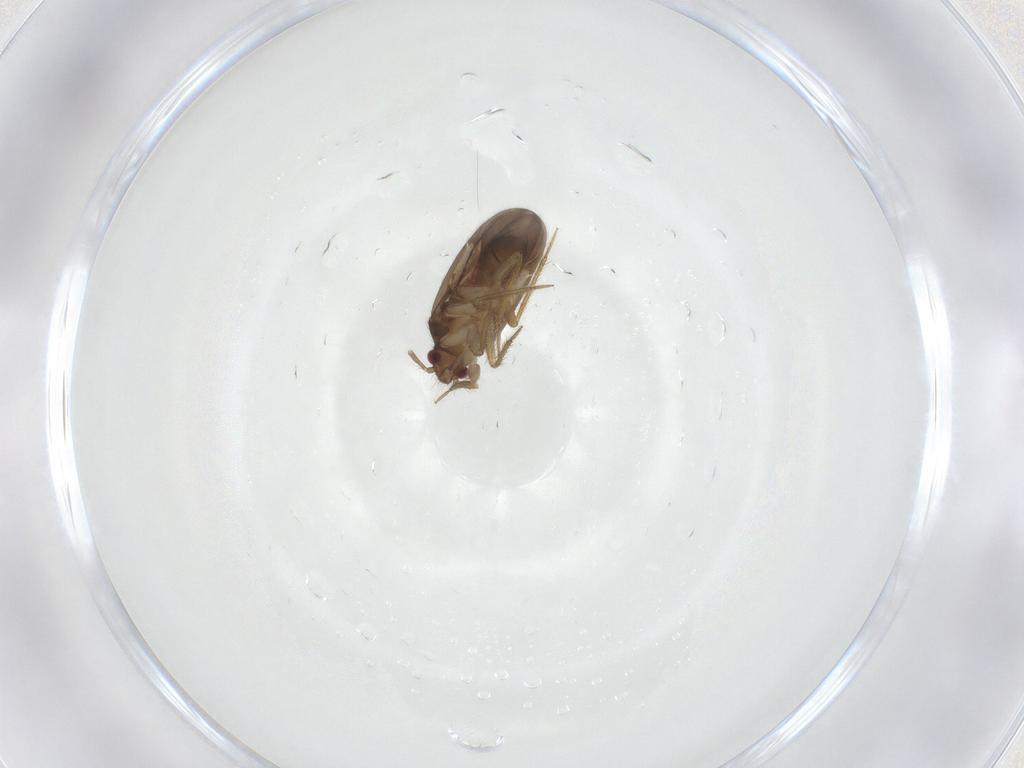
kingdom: Animalia
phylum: Arthropoda
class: Insecta
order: Hemiptera
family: Ceratocombidae
